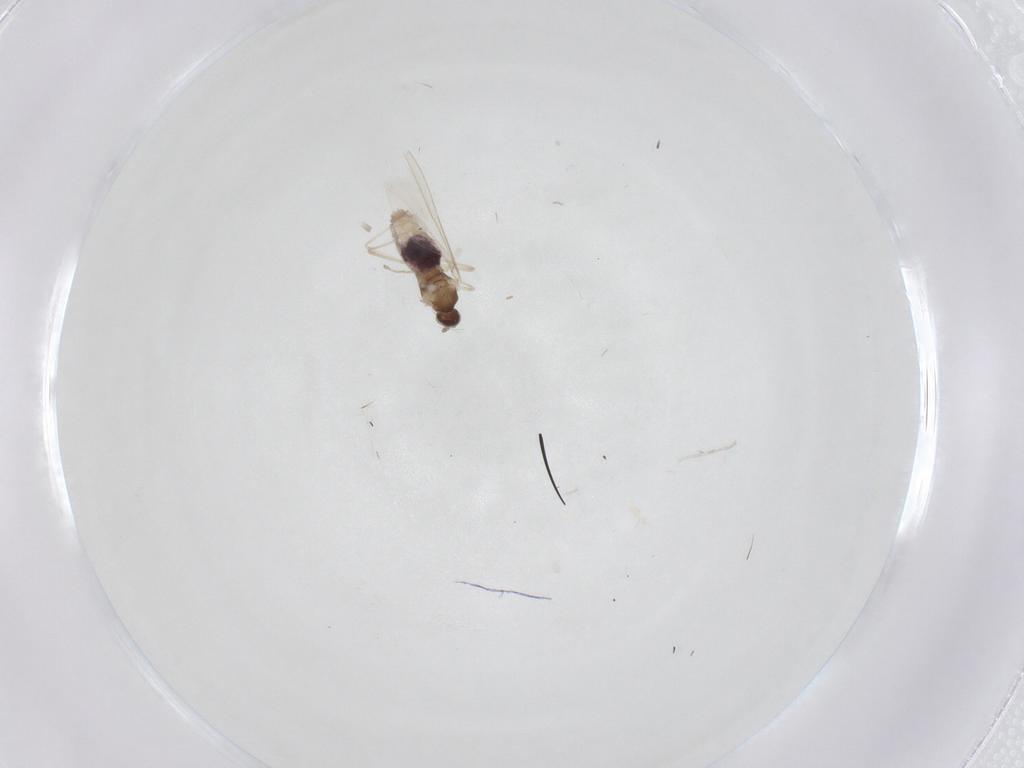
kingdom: Animalia
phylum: Arthropoda
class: Insecta
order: Diptera
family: Cecidomyiidae
